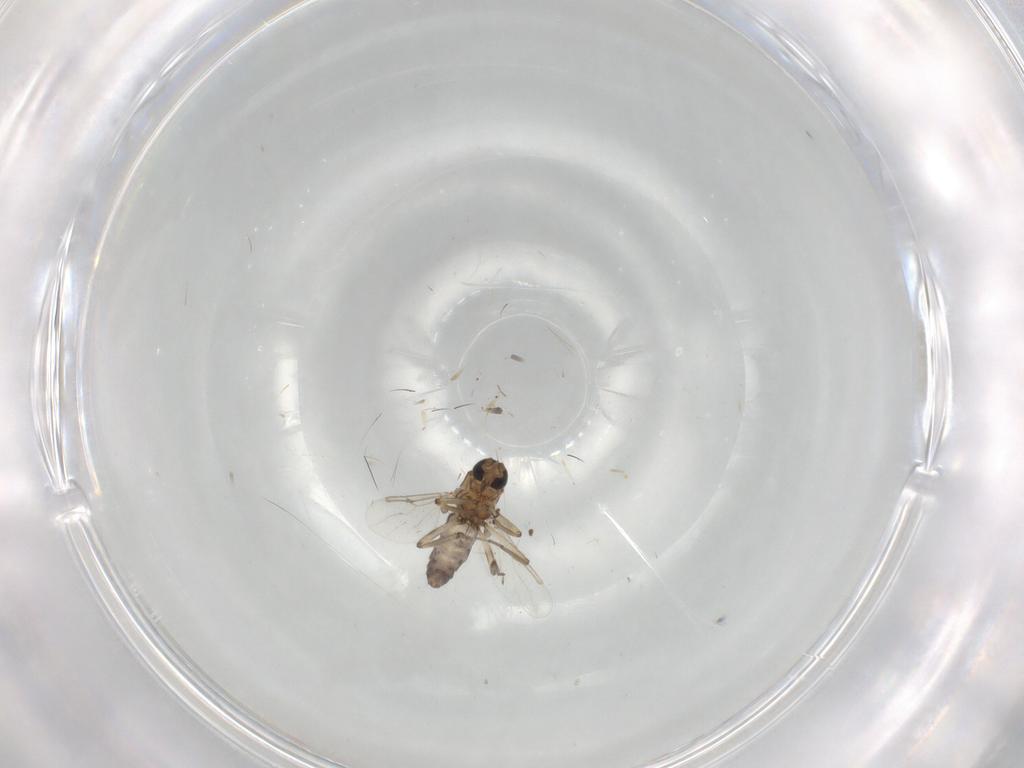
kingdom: Animalia
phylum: Arthropoda
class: Insecta
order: Diptera
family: Ceratopogonidae
